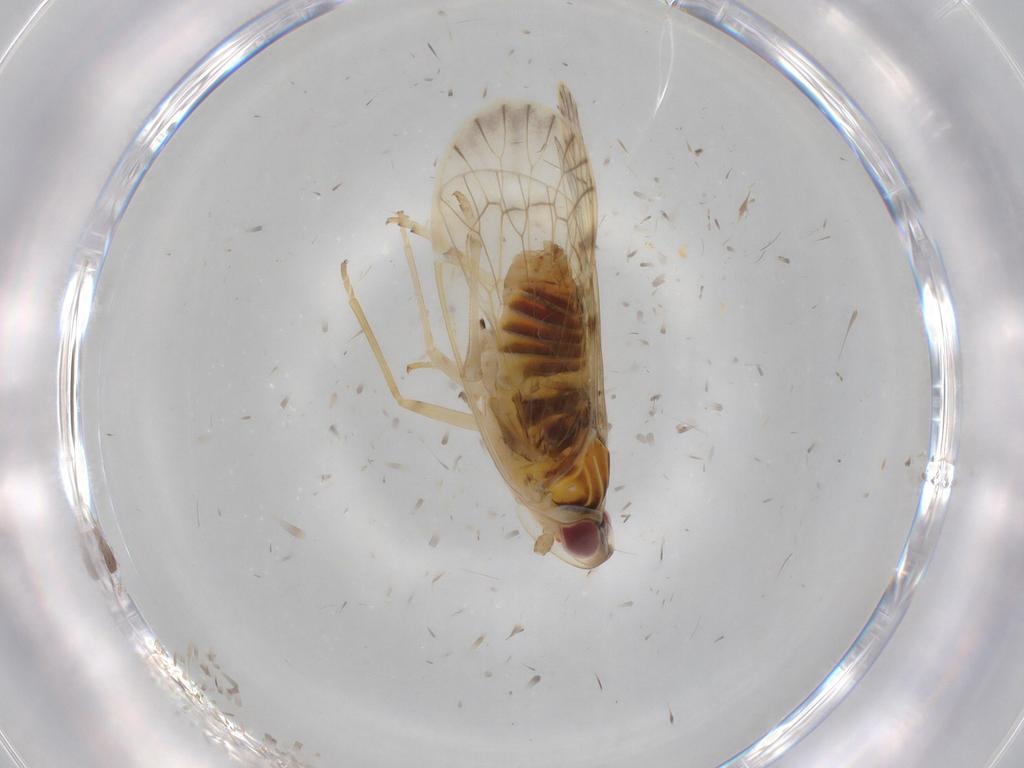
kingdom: Animalia
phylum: Arthropoda
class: Insecta
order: Hemiptera
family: Kinnaridae
